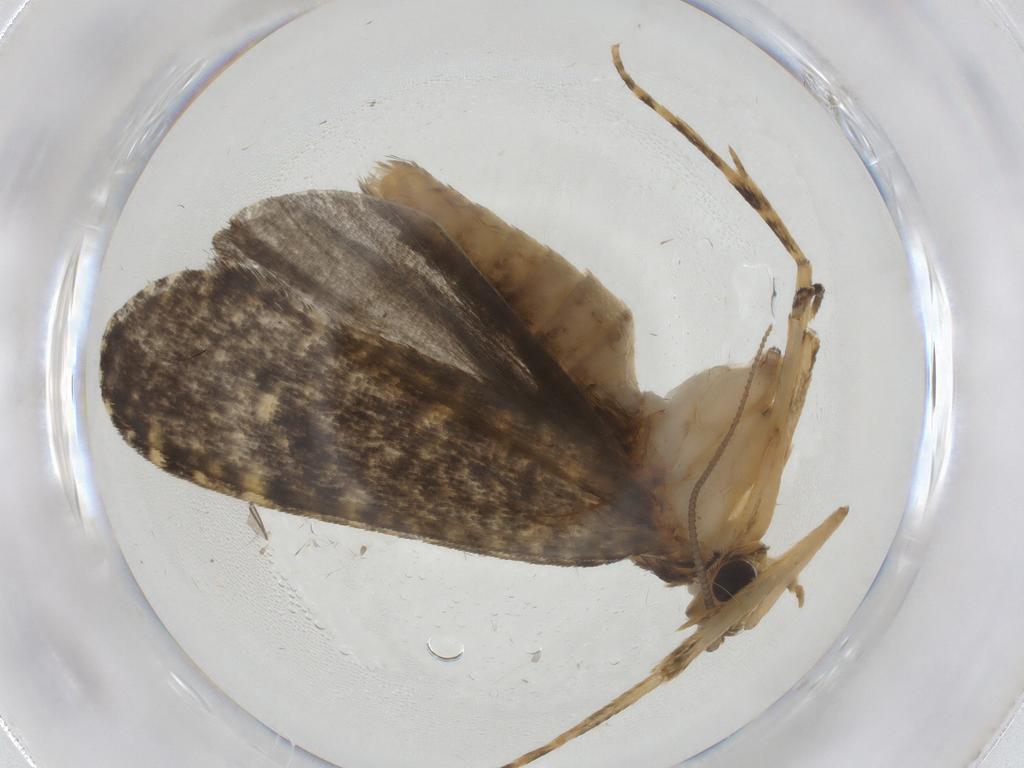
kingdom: Animalia
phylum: Arthropoda
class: Insecta
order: Lepidoptera
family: Tineidae
